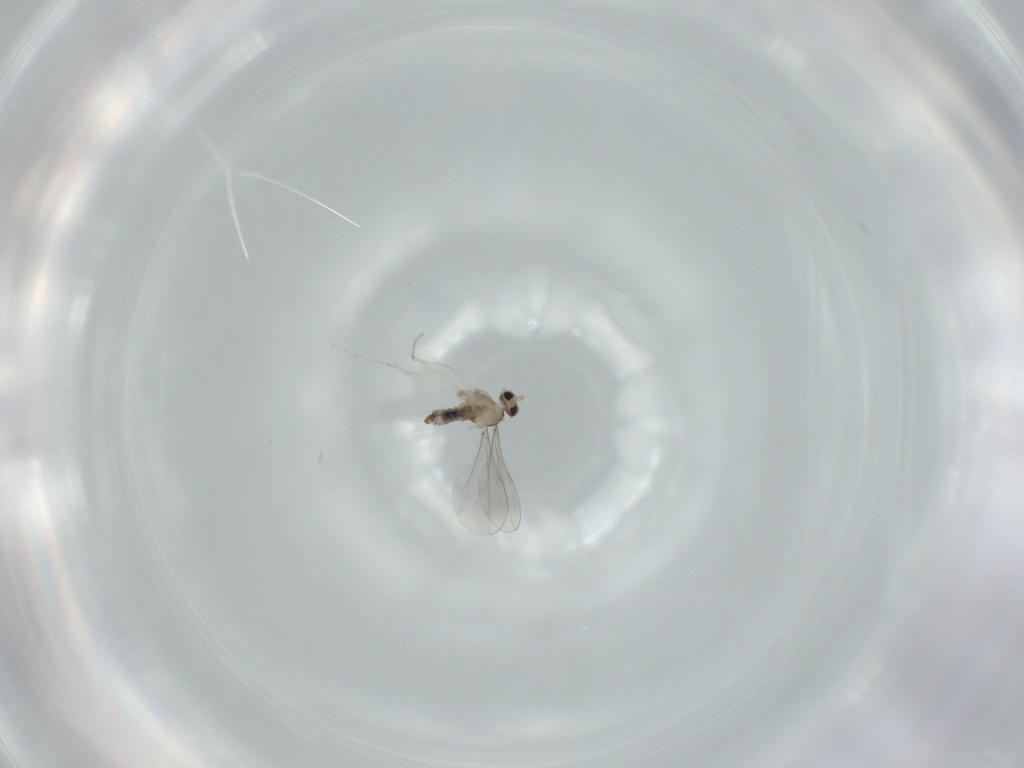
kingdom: Animalia
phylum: Arthropoda
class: Insecta
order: Diptera
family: Cecidomyiidae
